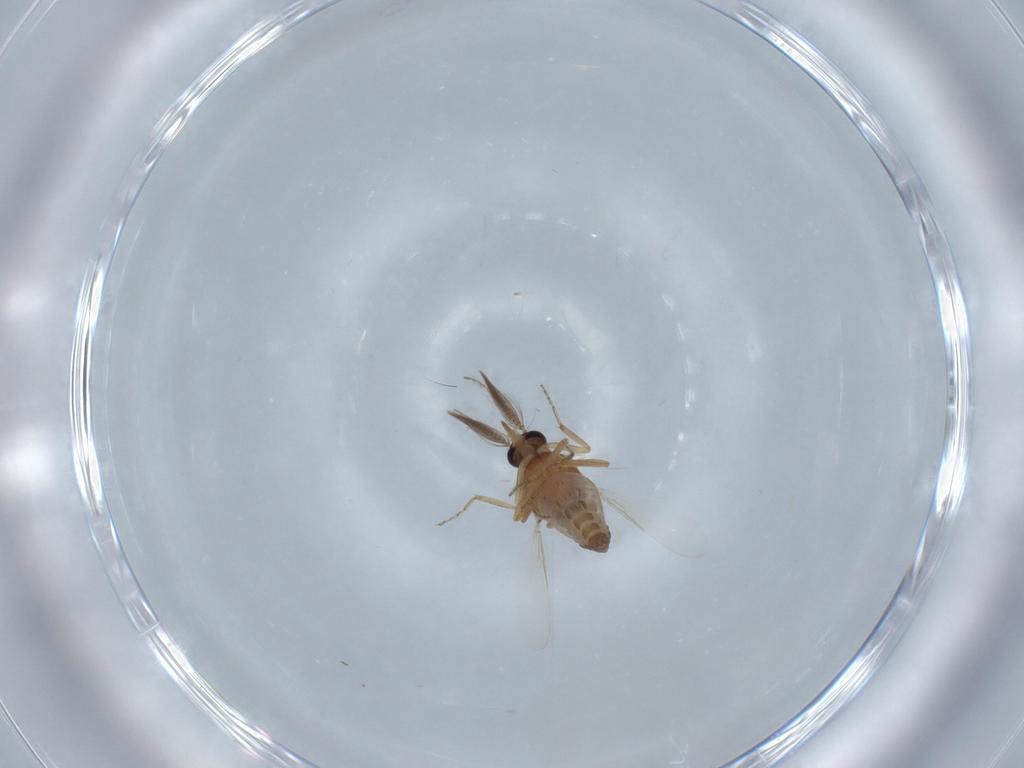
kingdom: Animalia
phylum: Arthropoda
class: Insecta
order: Diptera
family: Ceratopogonidae
